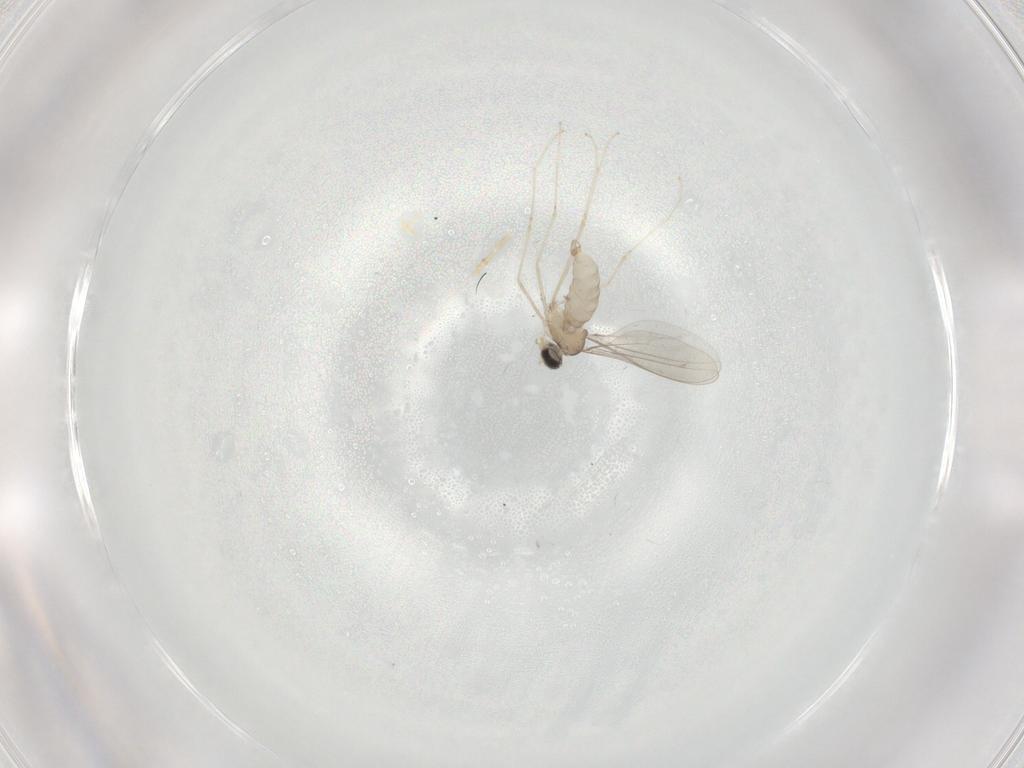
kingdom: Animalia
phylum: Arthropoda
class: Insecta
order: Diptera
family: Cecidomyiidae
